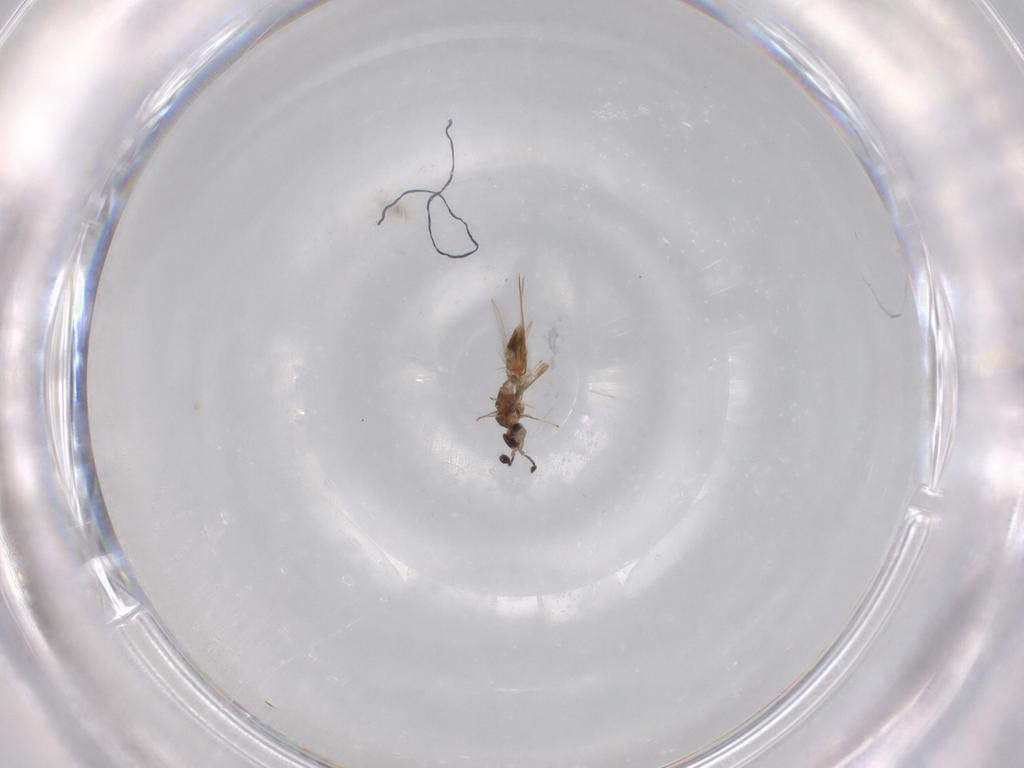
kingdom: Animalia
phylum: Arthropoda
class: Insecta
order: Hymenoptera
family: Mymaridae
